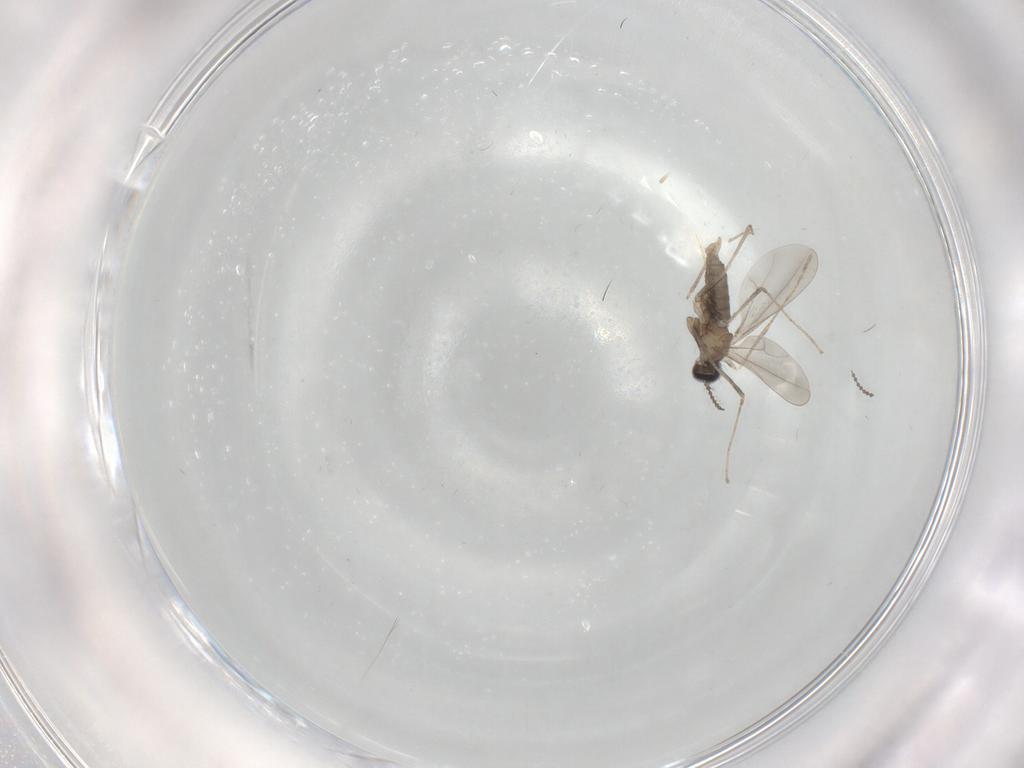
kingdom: Animalia
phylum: Arthropoda
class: Insecta
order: Diptera
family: Cecidomyiidae
